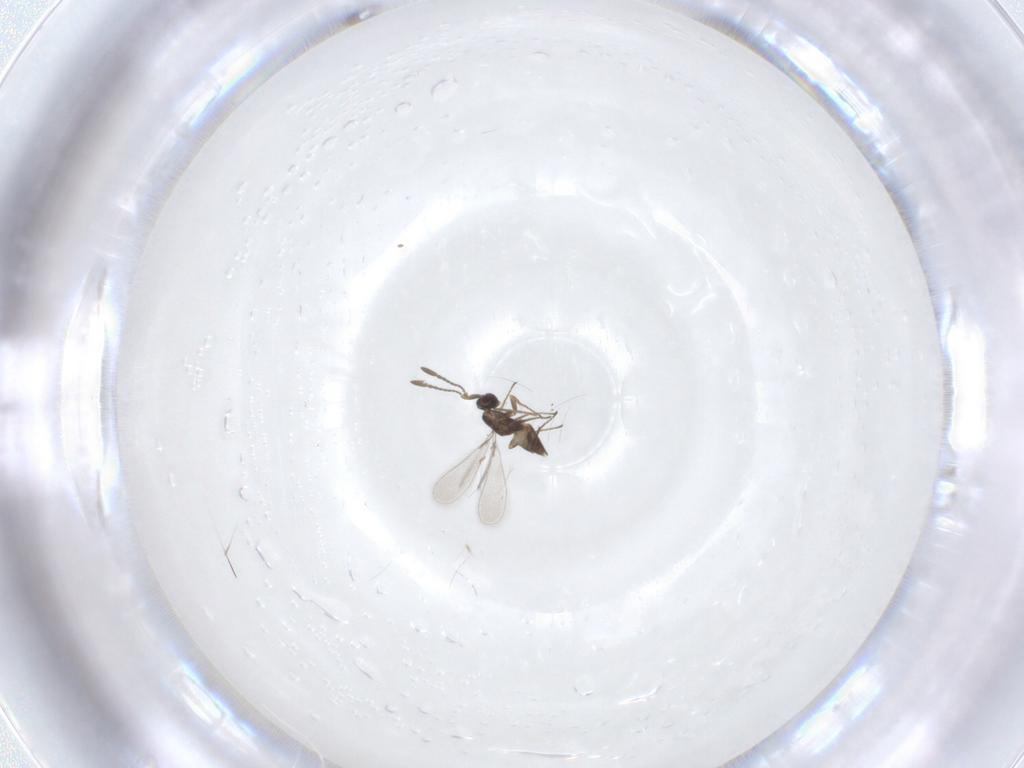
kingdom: Animalia
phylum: Arthropoda
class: Insecta
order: Hymenoptera
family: Mymaridae
